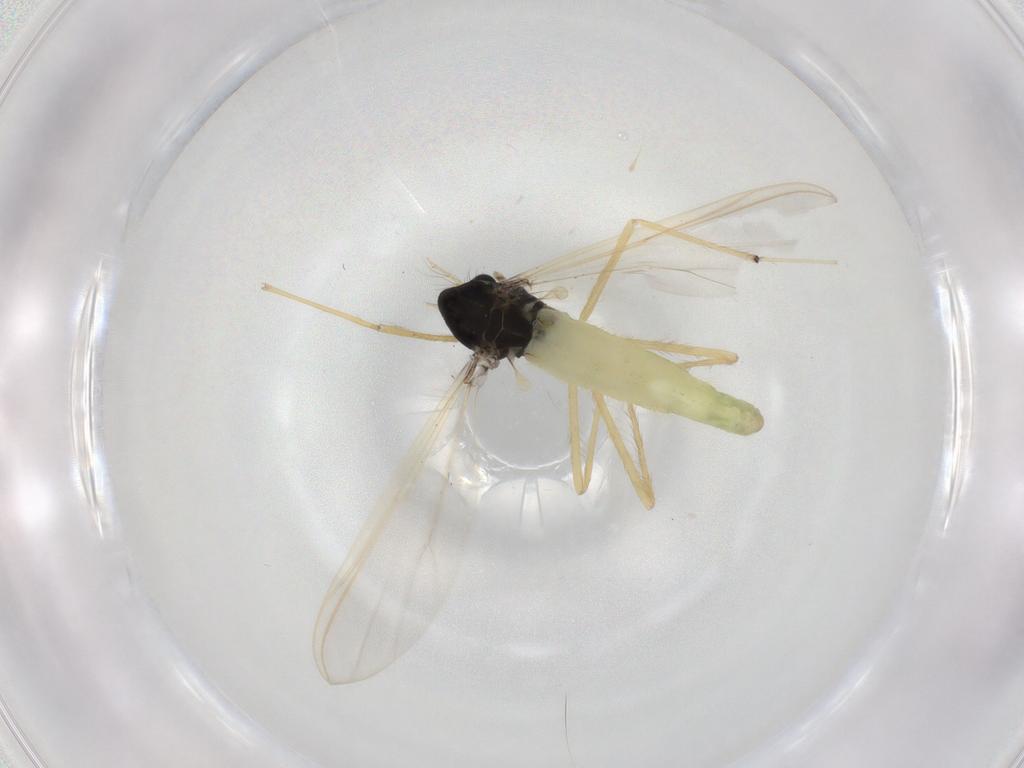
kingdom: Animalia
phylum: Arthropoda
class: Insecta
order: Diptera
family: Chironomidae
